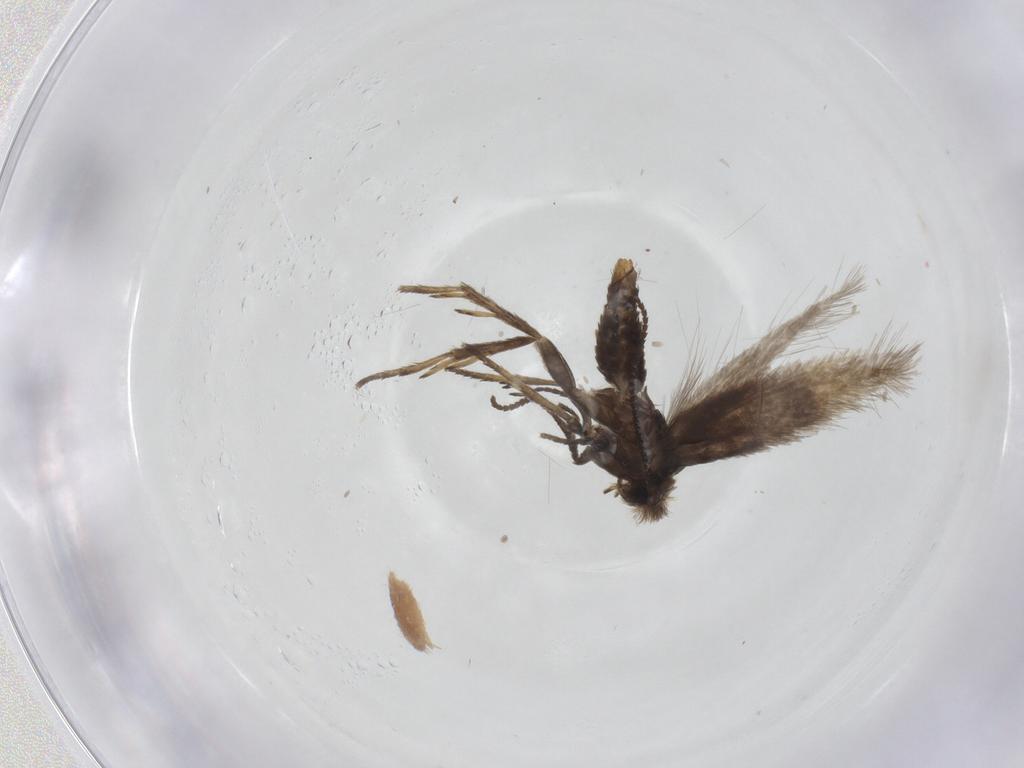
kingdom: Animalia
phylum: Arthropoda
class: Insecta
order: Lepidoptera
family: Nepticulidae
